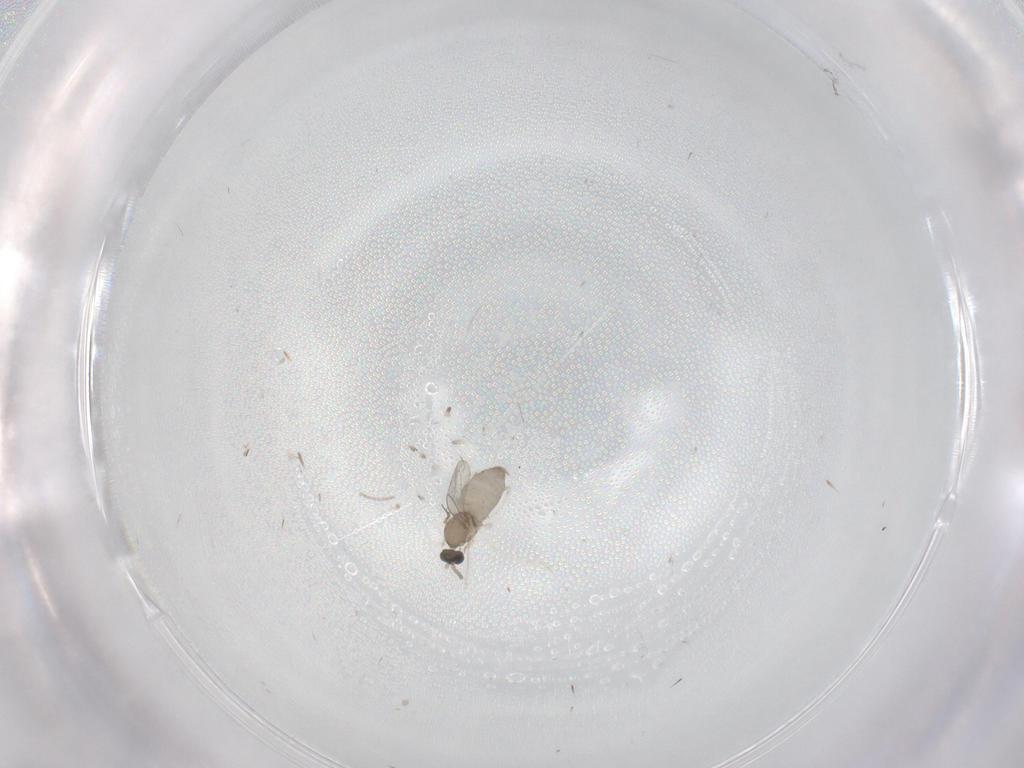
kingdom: Animalia
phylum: Arthropoda
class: Insecta
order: Diptera
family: Cecidomyiidae
